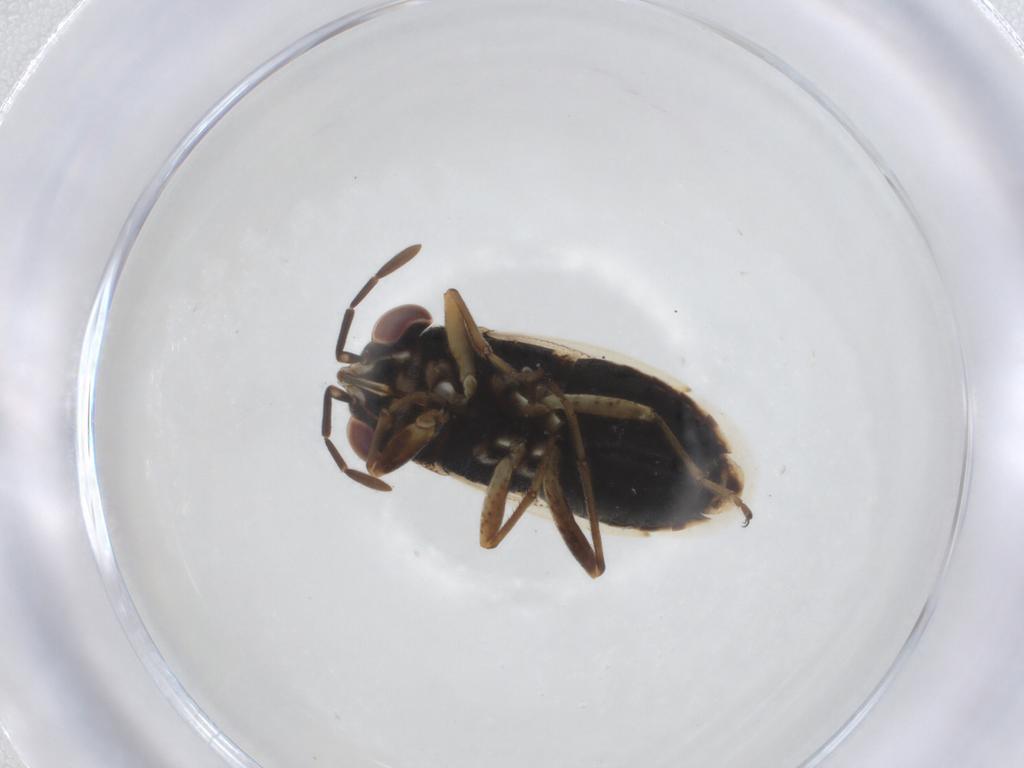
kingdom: Animalia
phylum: Arthropoda
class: Insecta
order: Hemiptera
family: Aphididae
